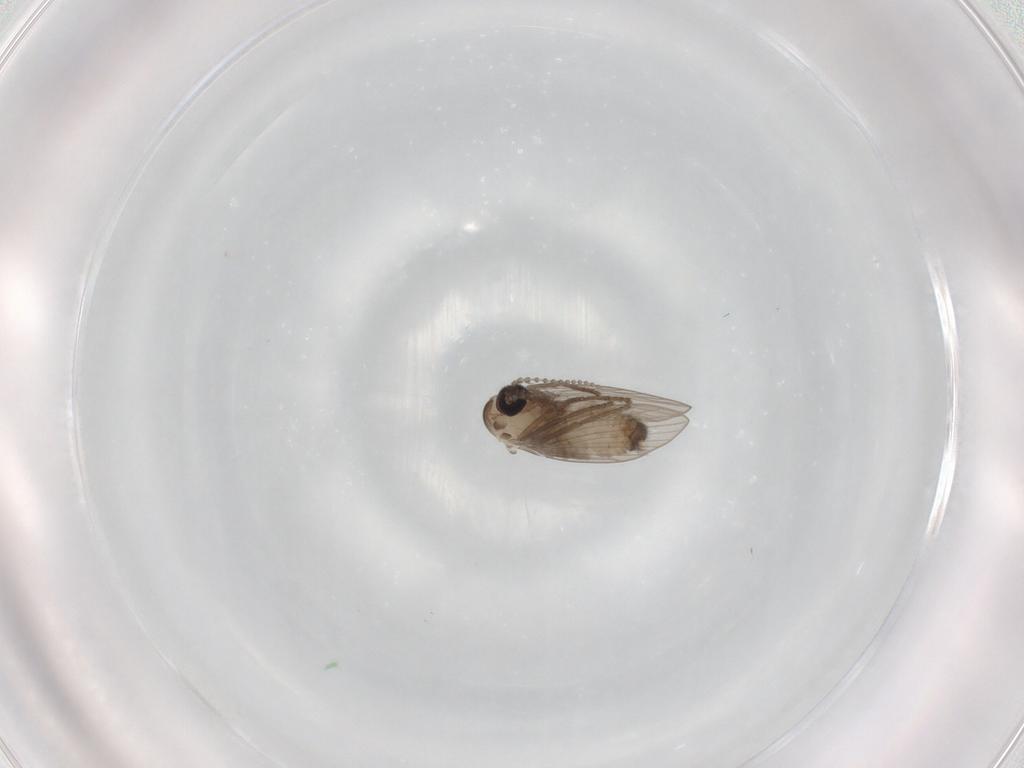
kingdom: Animalia
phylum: Arthropoda
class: Insecta
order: Diptera
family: Psychodidae
